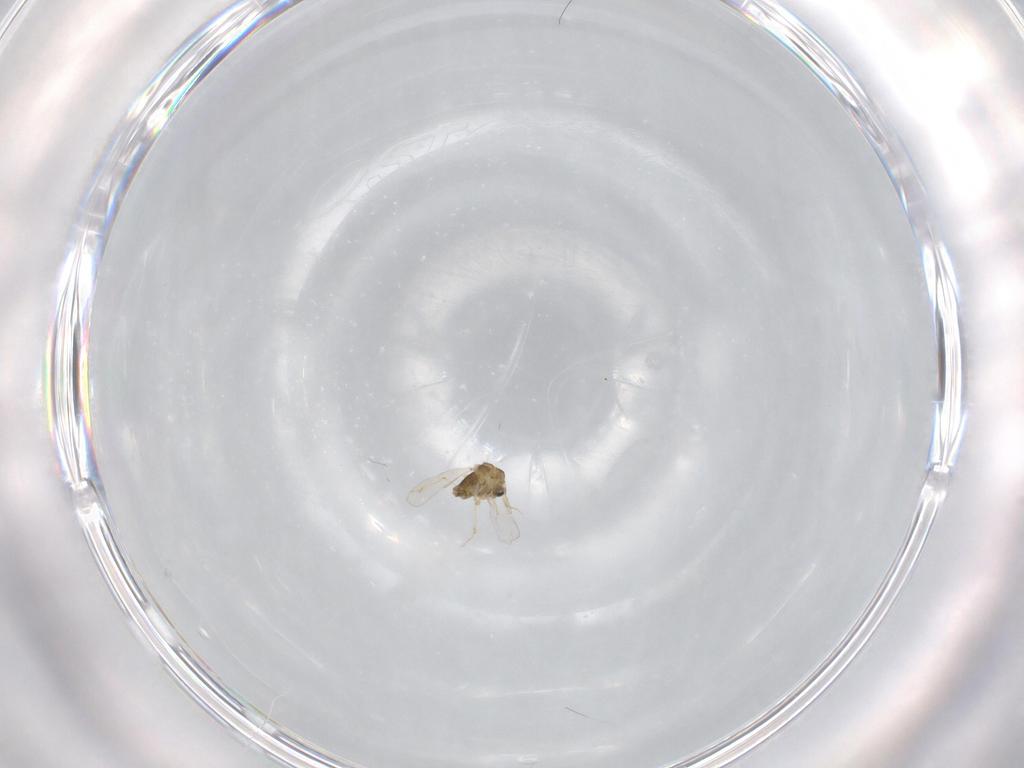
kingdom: Animalia
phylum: Arthropoda
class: Insecta
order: Diptera
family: Chironomidae
